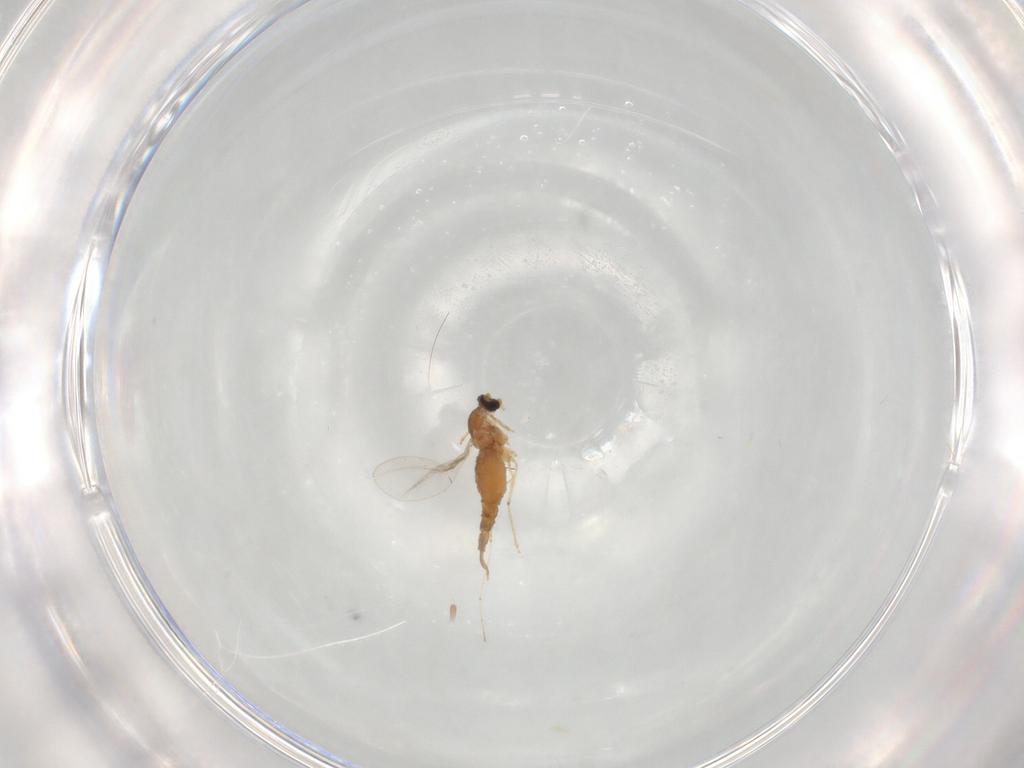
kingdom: Animalia
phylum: Arthropoda
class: Insecta
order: Diptera
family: Cecidomyiidae
